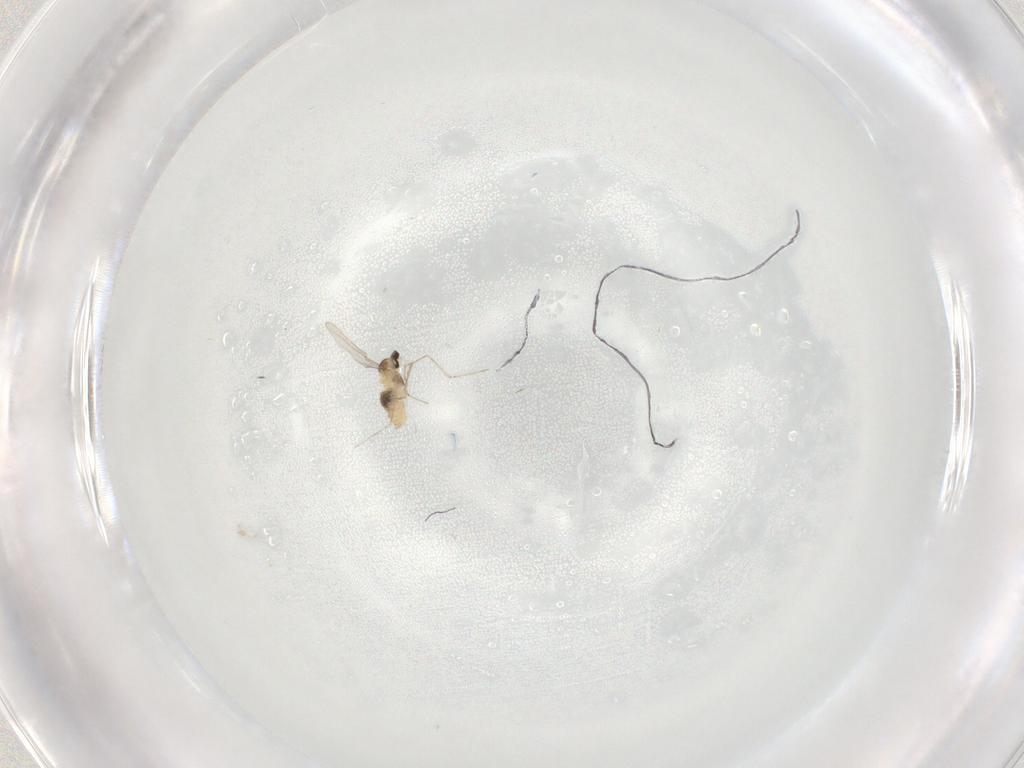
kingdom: Animalia
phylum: Arthropoda
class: Insecta
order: Diptera
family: Cecidomyiidae
